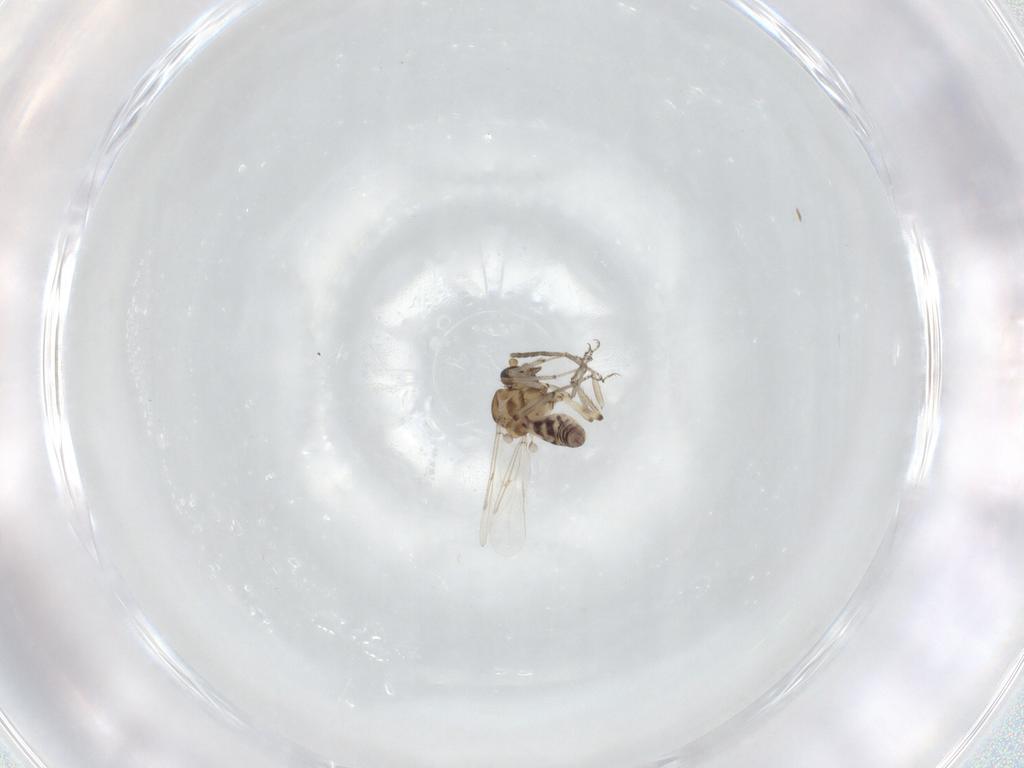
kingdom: Animalia
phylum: Arthropoda
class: Insecta
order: Diptera
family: Ceratopogonidae
